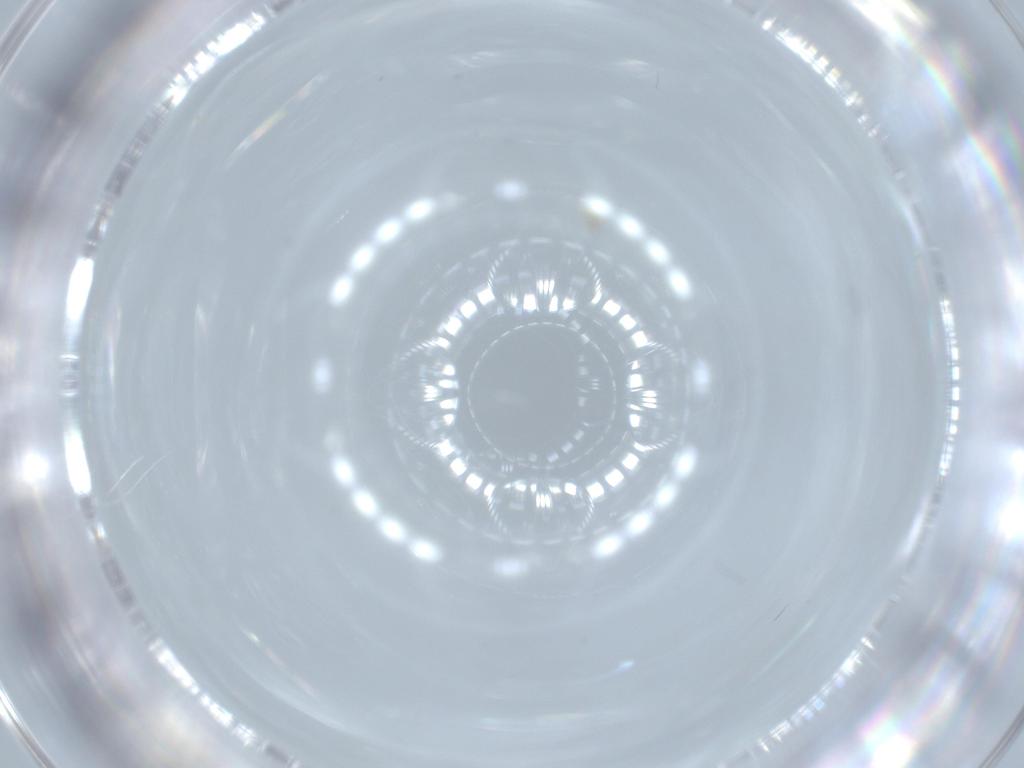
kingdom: Animalia
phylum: Arthropoda
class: Insecta
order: Diptera
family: Cecidomyiidae
